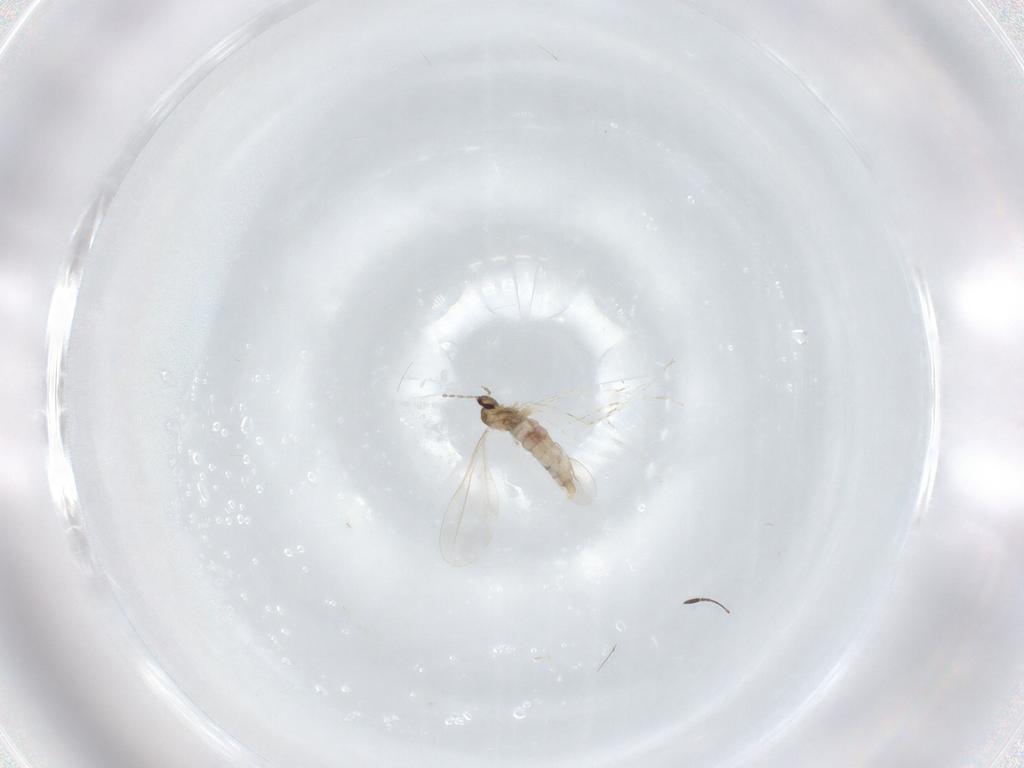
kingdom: Animalia
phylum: Arthropoda
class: Insecta
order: Diptera
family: Cecidomyiidae
